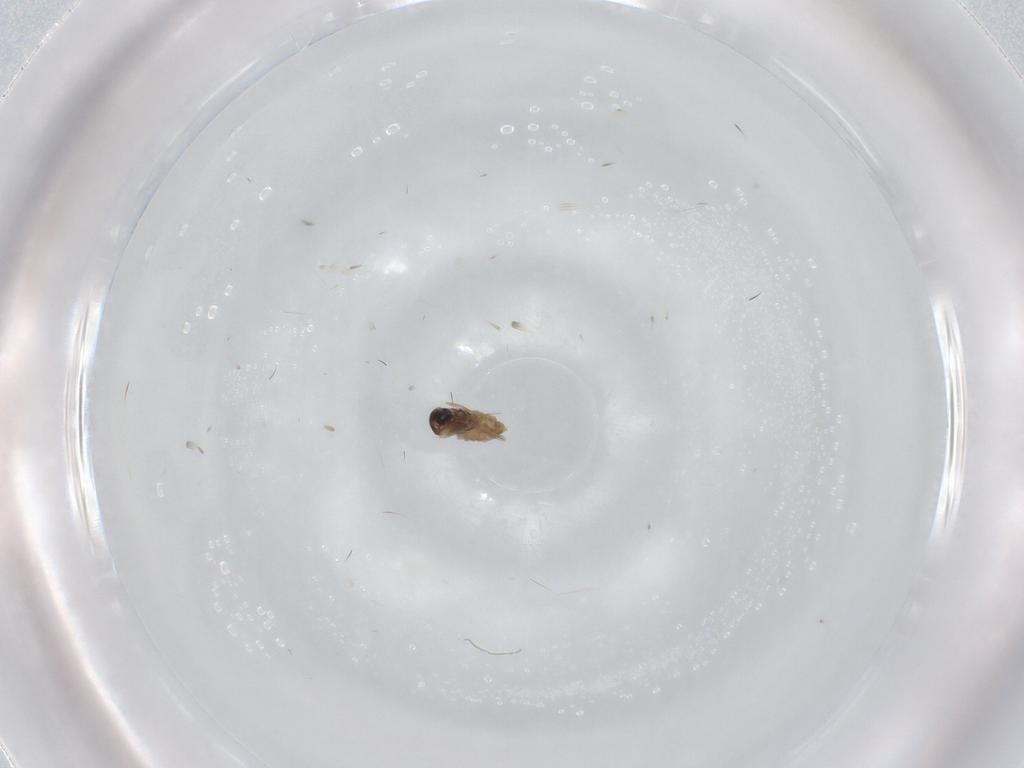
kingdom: Animalia
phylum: Arthropoda
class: Insecta
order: Diptera
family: Cecidomyiidae
